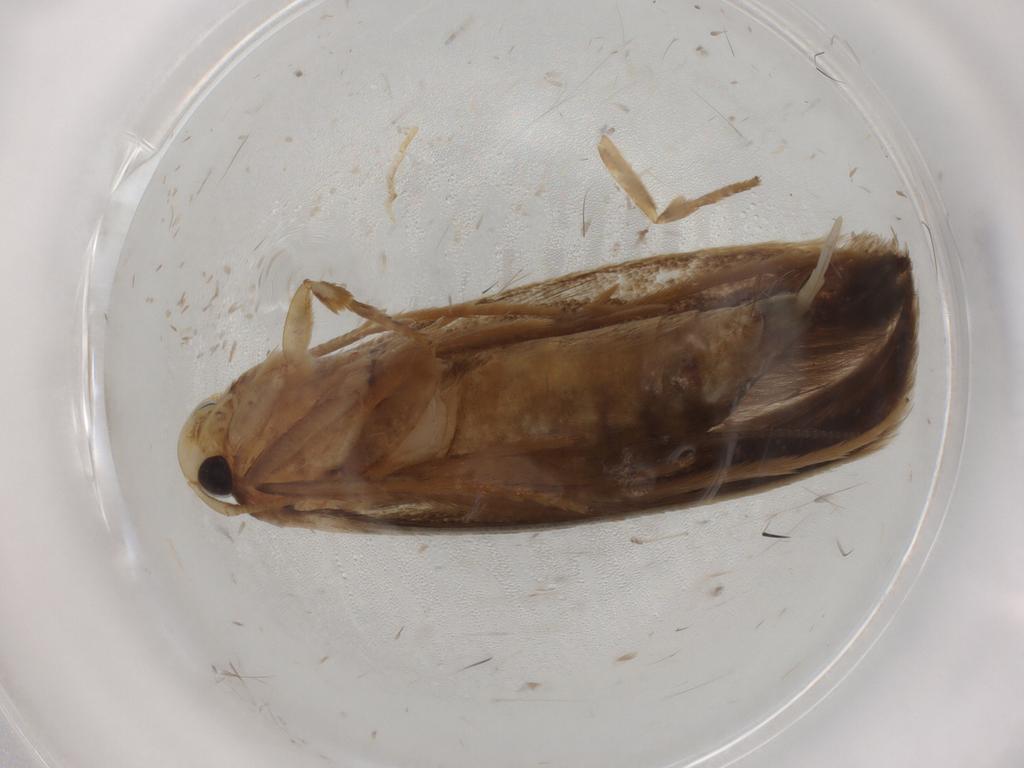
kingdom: Animalia
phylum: Arthropoda
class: Insecta
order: Lepidoptera
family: Tineidae
